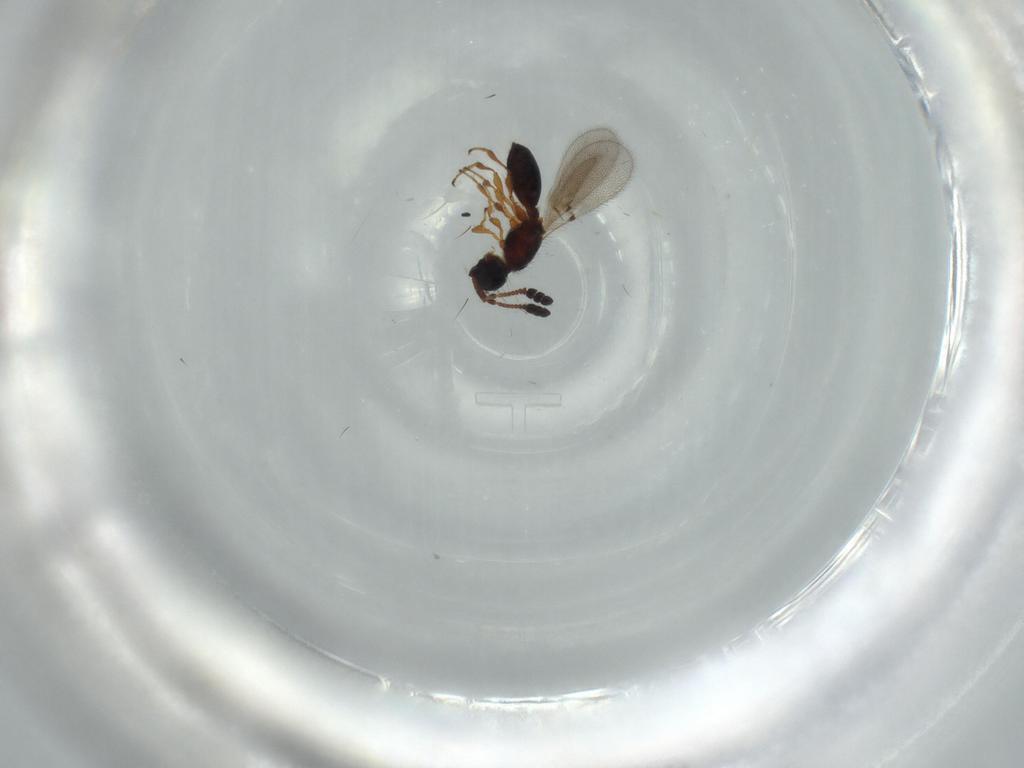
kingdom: Animalia
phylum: Arthropoda
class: Insecta
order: Hymenoptera
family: Diapriidae
